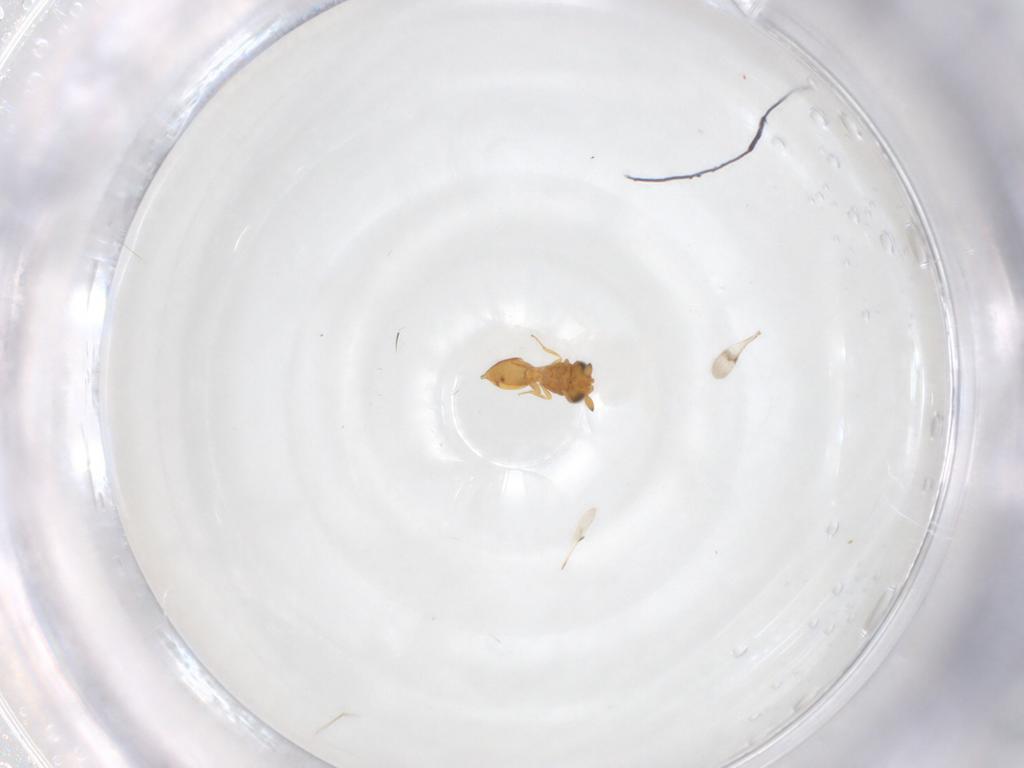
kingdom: Animalia
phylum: Arthropoda
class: Insecta
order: Hymenoptera
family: Scelionidae
